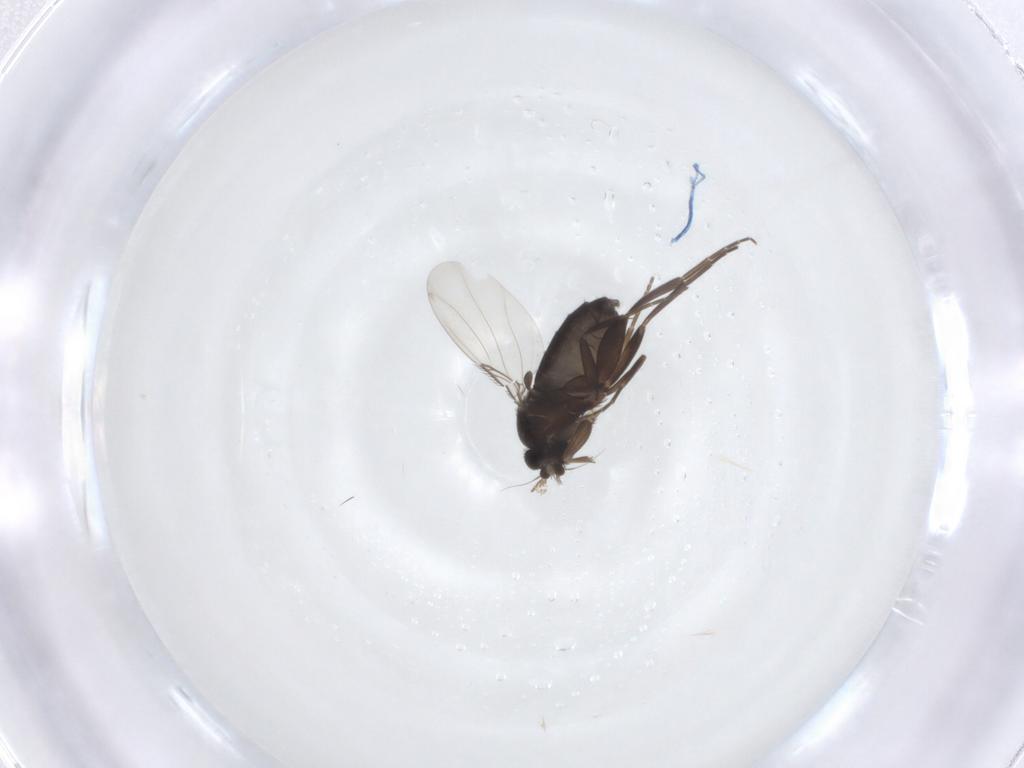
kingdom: Animalia
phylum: Arthropoda
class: Insecta
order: Diptera
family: Phoridae
